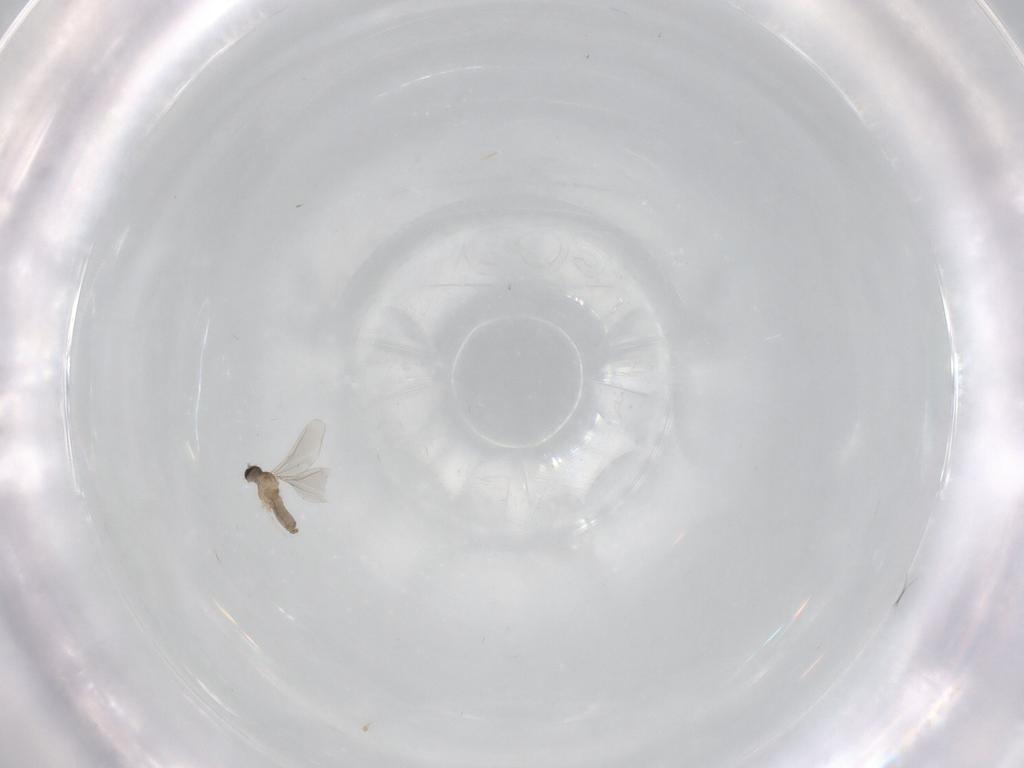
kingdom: Animalia
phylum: Arthropoda
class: Insecta
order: Diptera
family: Cecidomyiidae
